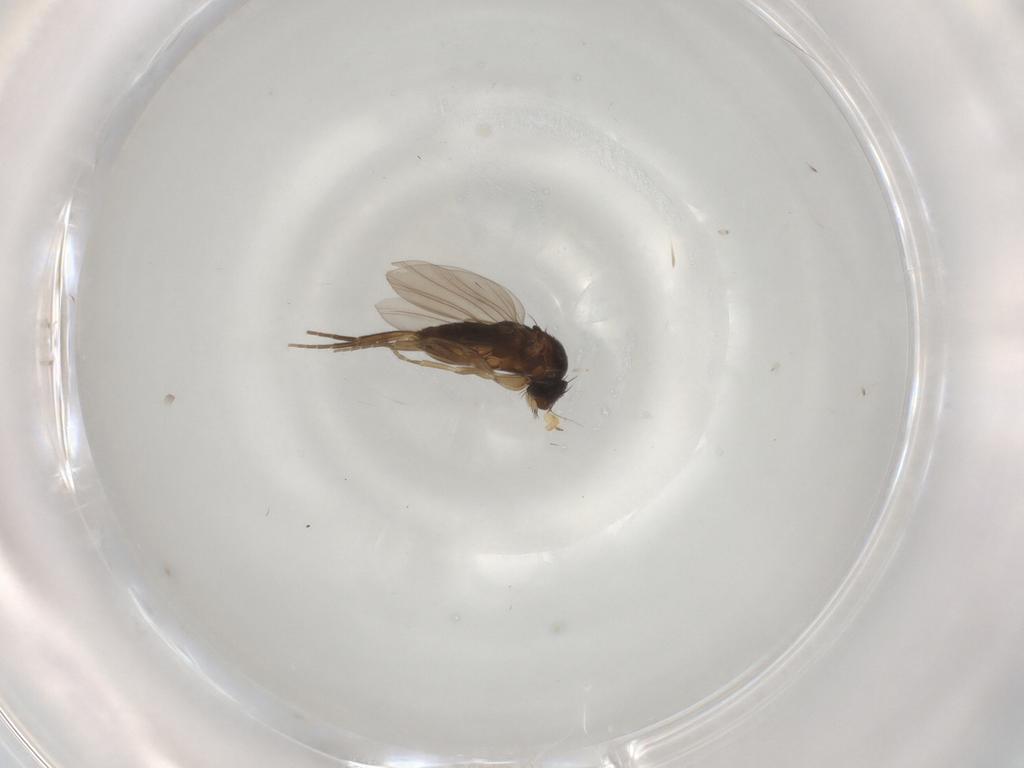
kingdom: Animalia
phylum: Arthropoda
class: Insecta
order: Diptera
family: Phoridae
